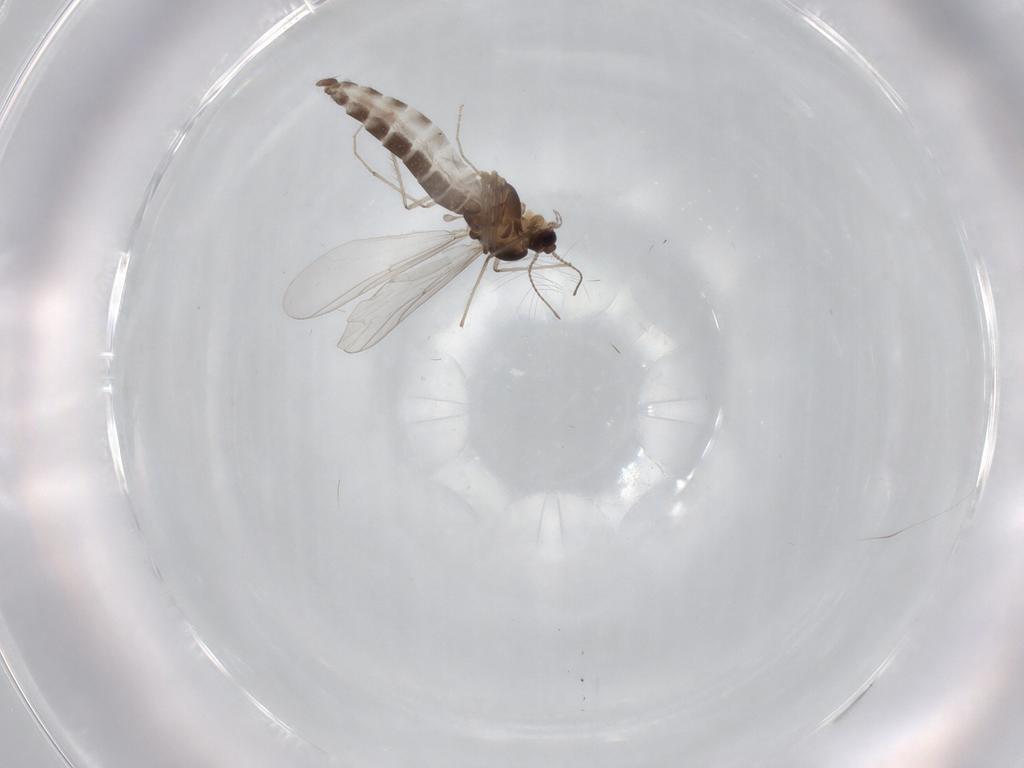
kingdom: Animalia
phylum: Arthropoda
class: Insecta
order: Diptera
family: Chironomidae
